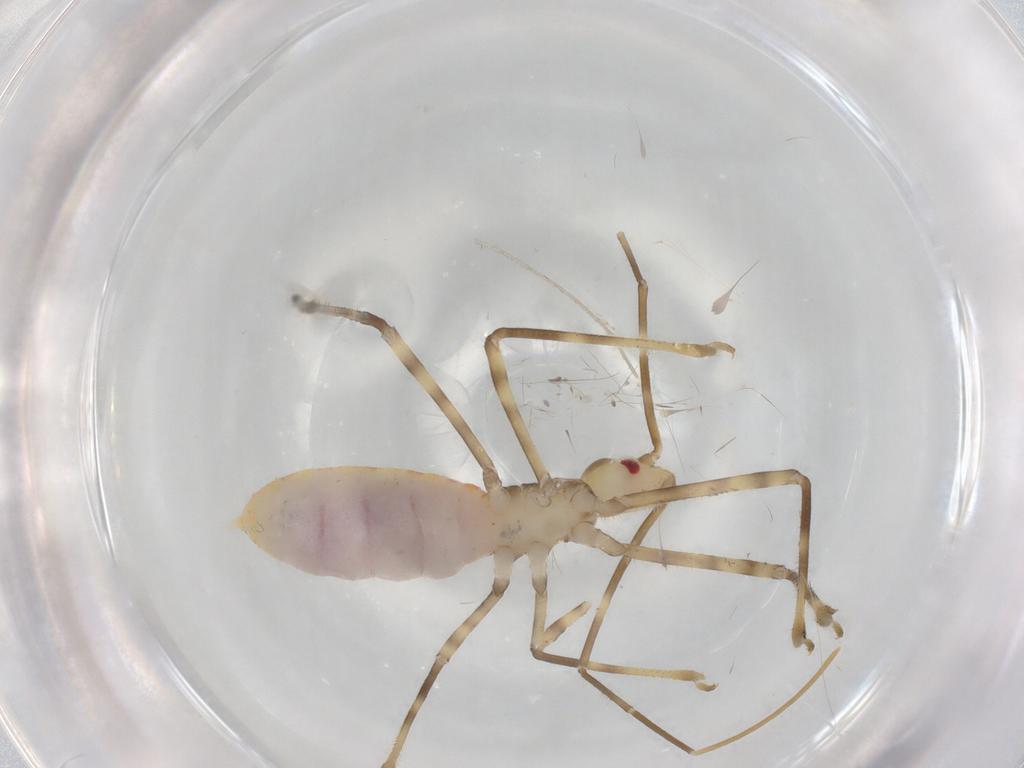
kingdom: Animalia
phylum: Arthropoda
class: Insecta
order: Hemiptera
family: Reduviidae
